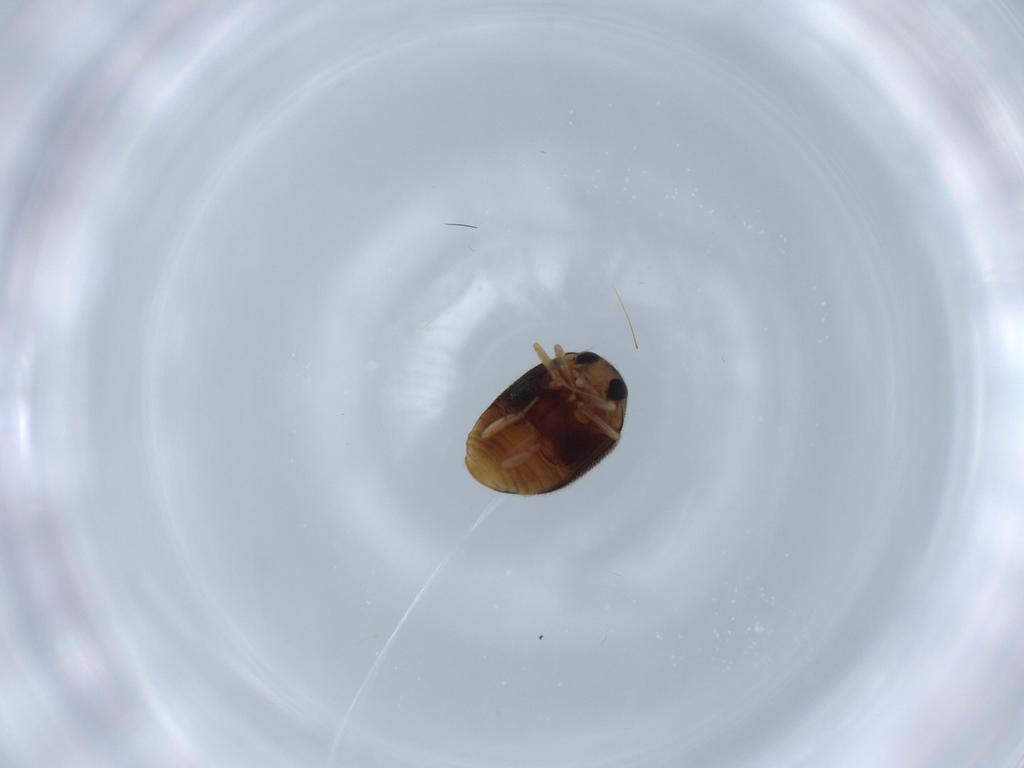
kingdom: Animalia
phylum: Arthropoda
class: Insecta
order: Coleoptera
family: Coccinellidae
